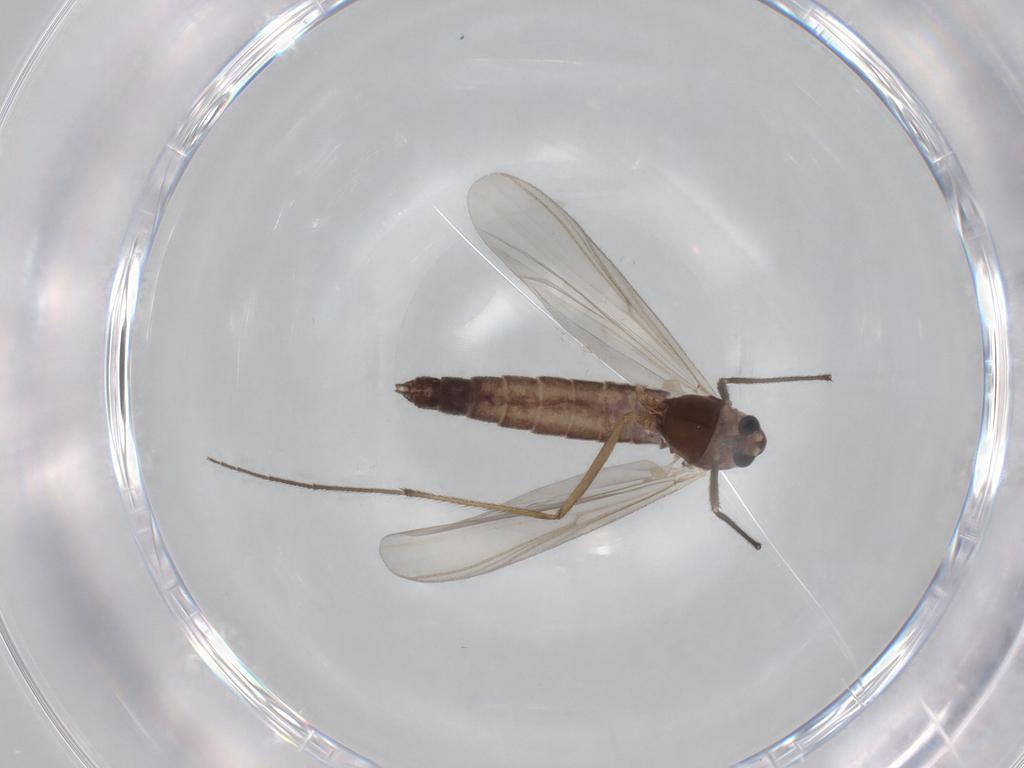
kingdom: Animalia
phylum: Arthropoda
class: Insecta
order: Diptera
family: Chironomidae
